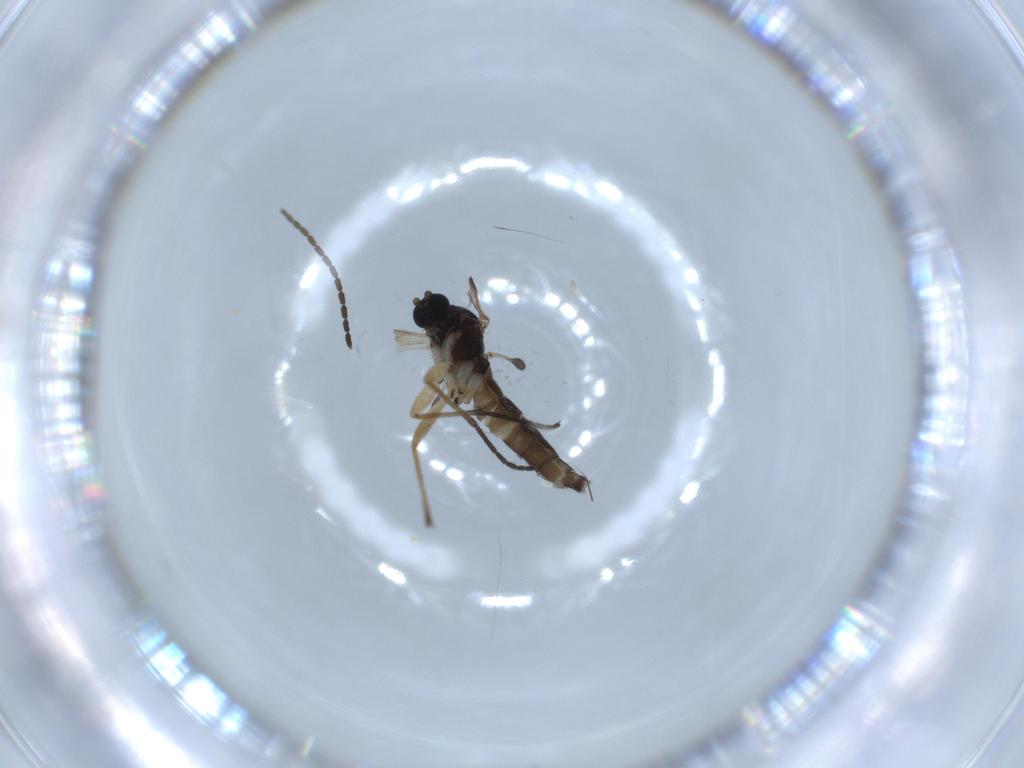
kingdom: Animalia
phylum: Arthropoda
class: Insecta
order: Diptera
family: Sciaridae
